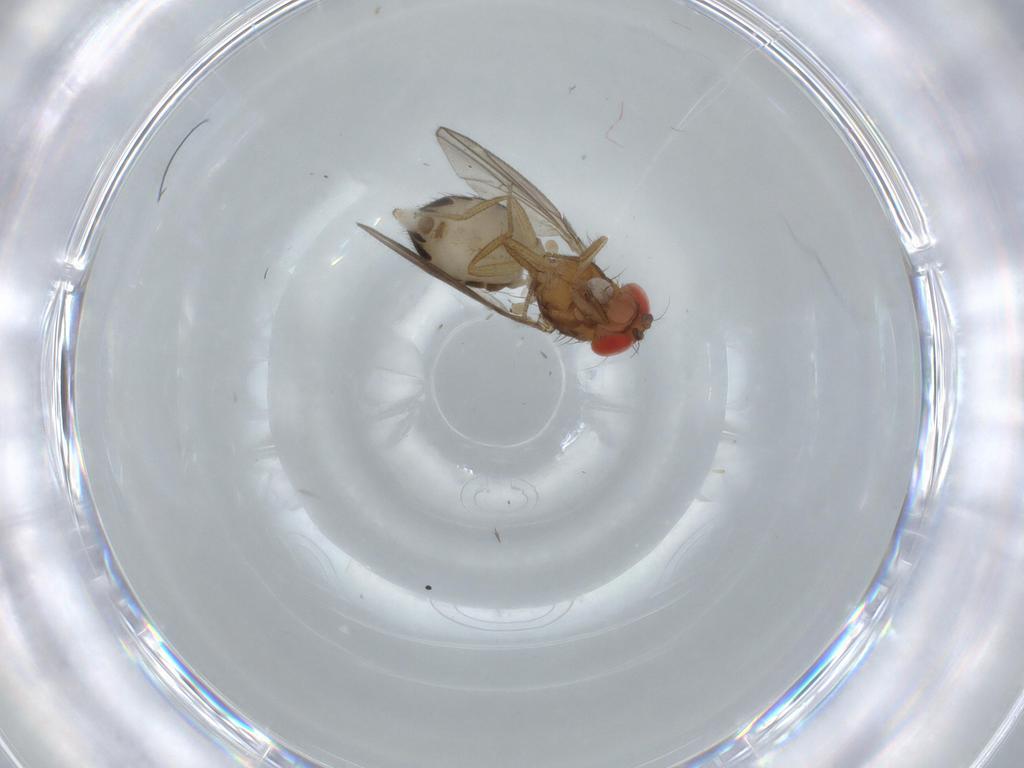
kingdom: Animalia
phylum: Arthropoda
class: Insecta
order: Diptera
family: Drosophilidae
